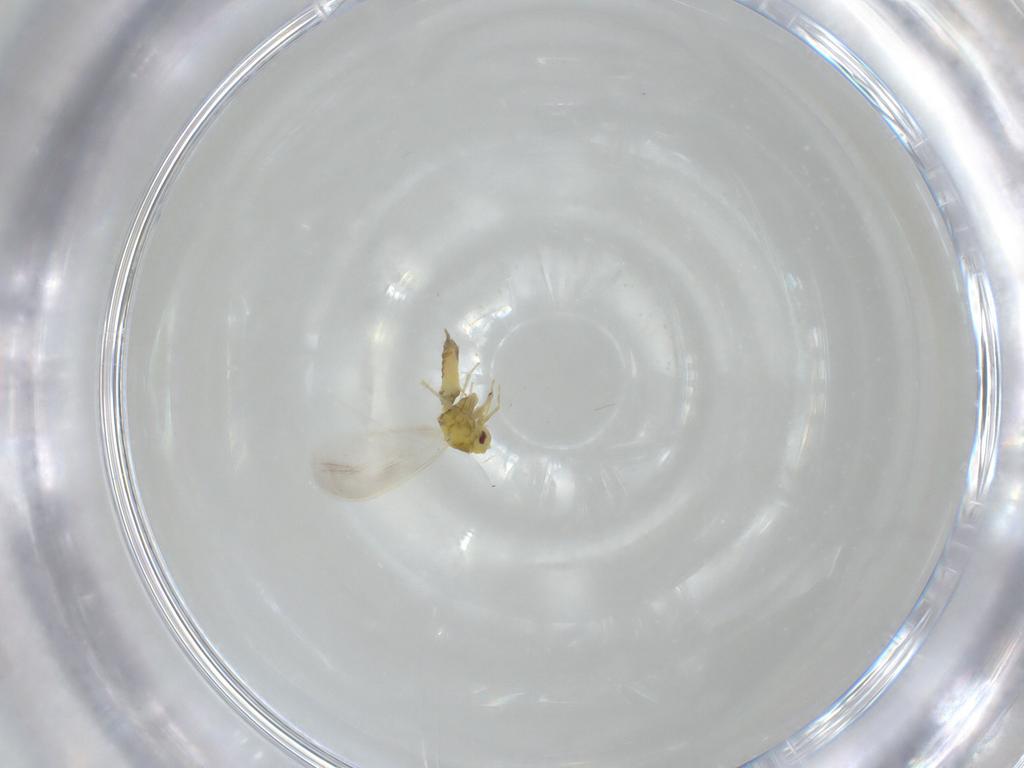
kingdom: Animalia
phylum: Arthropoda
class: Insecta
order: Hemiptera
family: Aleyrodidae
